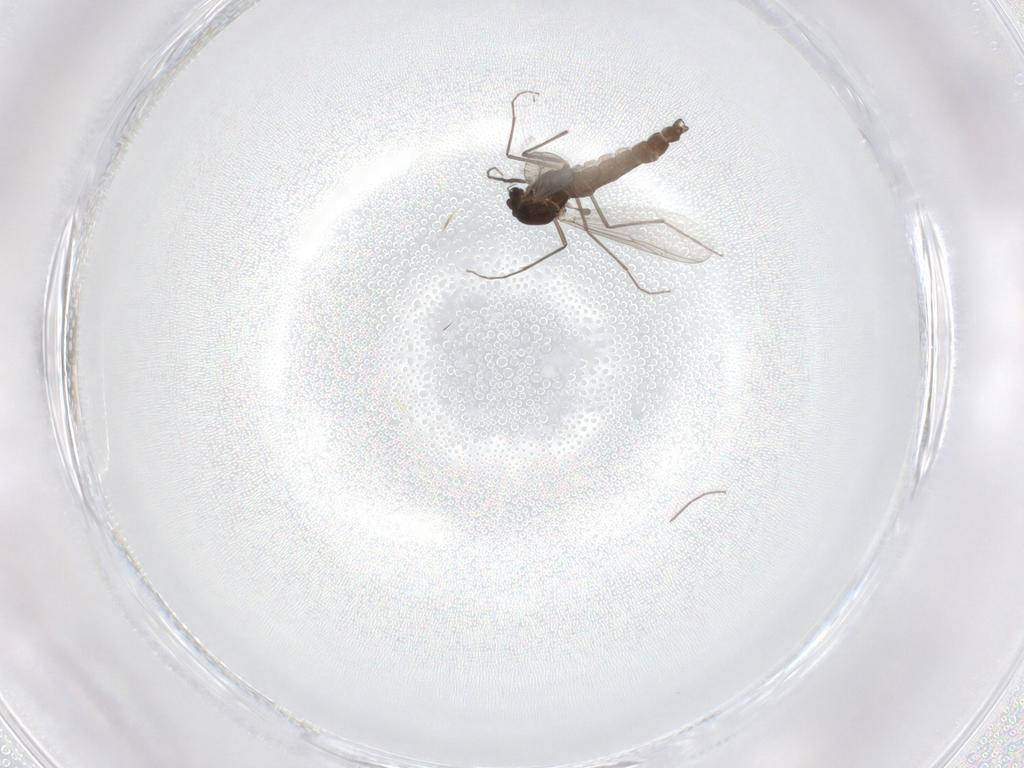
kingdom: Animalia
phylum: Arthropoda
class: Insecta
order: Diptera
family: Chironomidae
